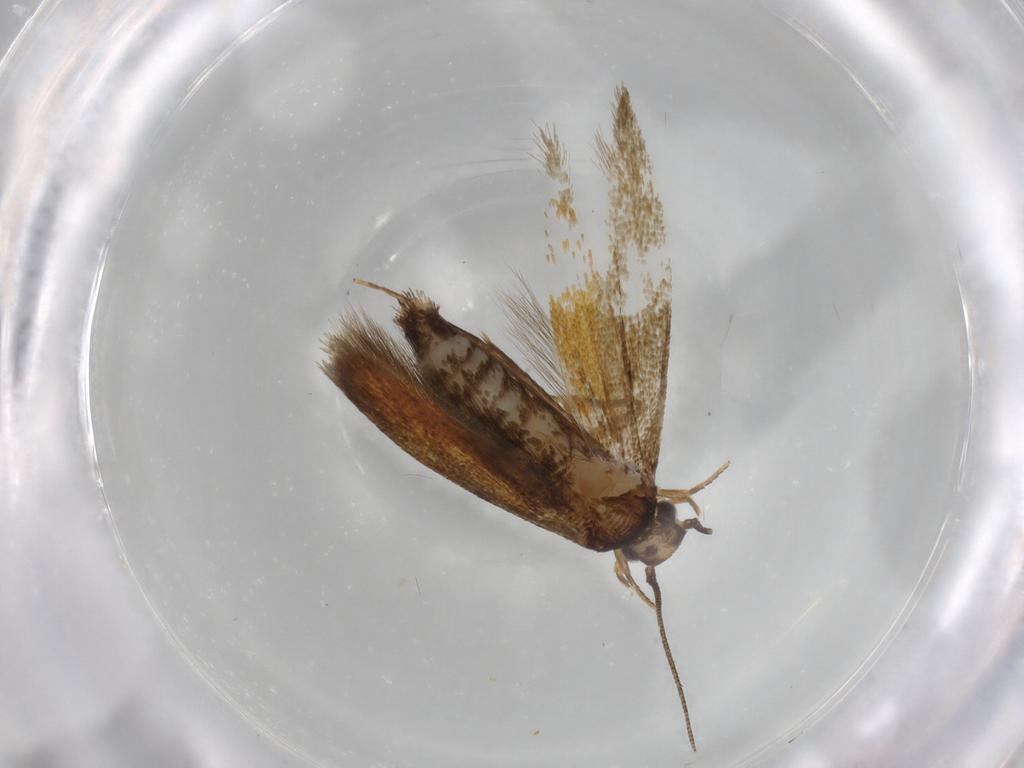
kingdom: Animalia
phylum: Arthropoda
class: Insecta
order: Lepidoptera
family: Tineidae
